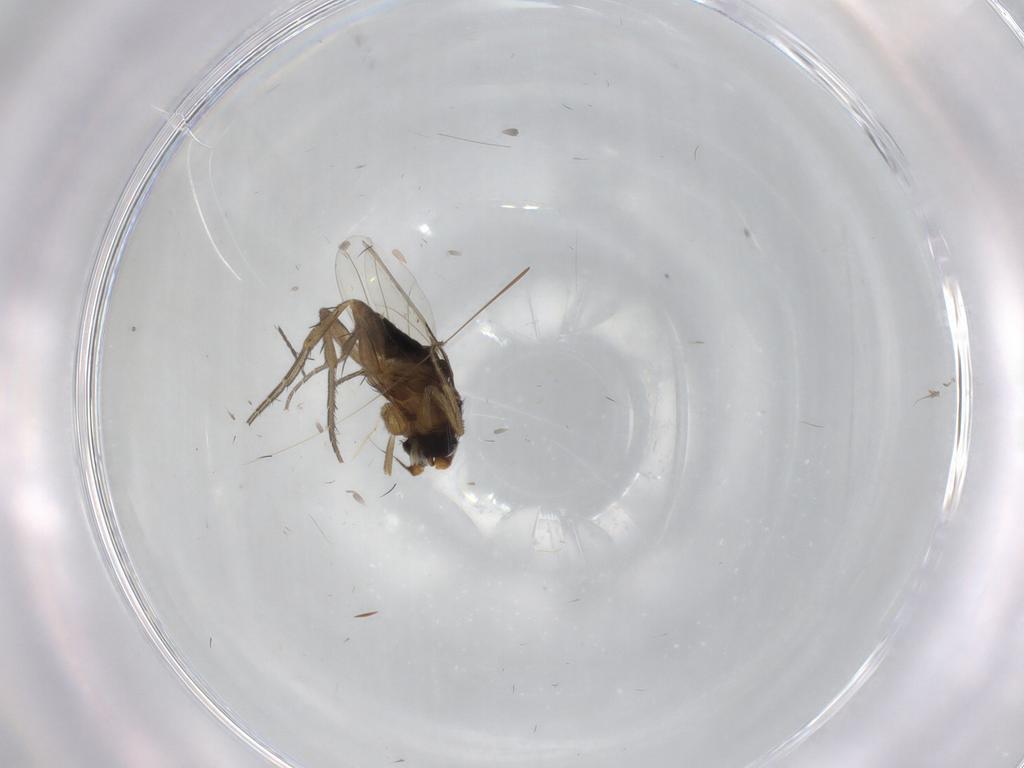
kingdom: Animalia
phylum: Arthropoda
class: Insecta
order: Diptera
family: Phoridae
